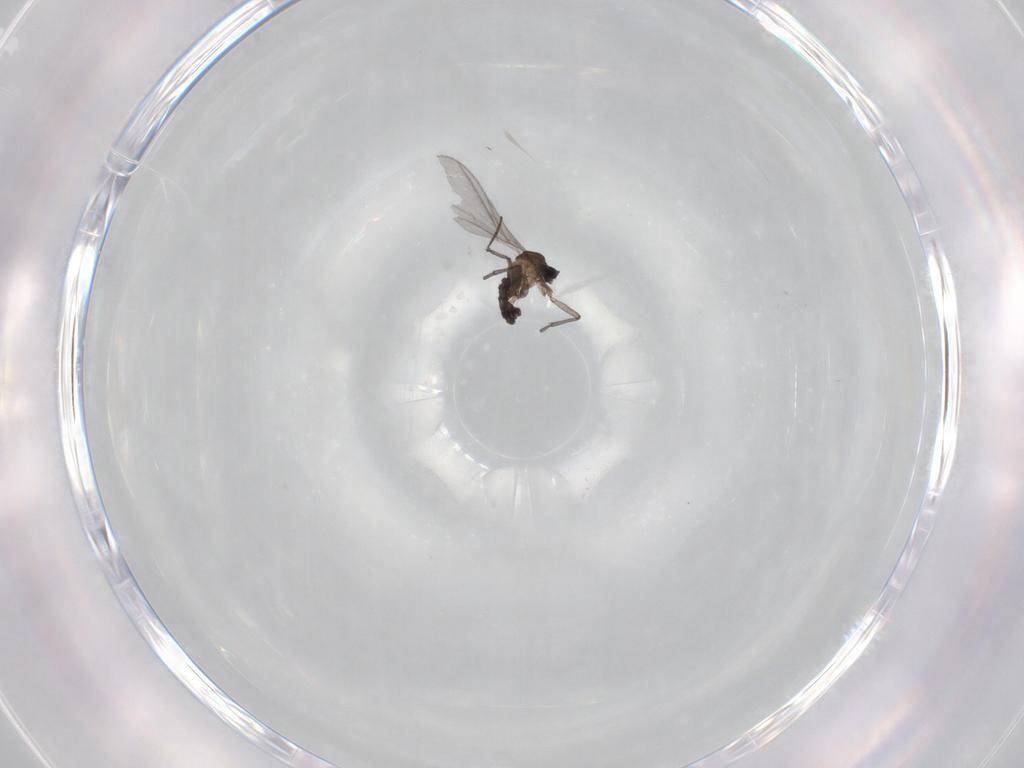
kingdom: Animalia
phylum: Arthropoda
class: Insecta
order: Diptera
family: Sciaridae
